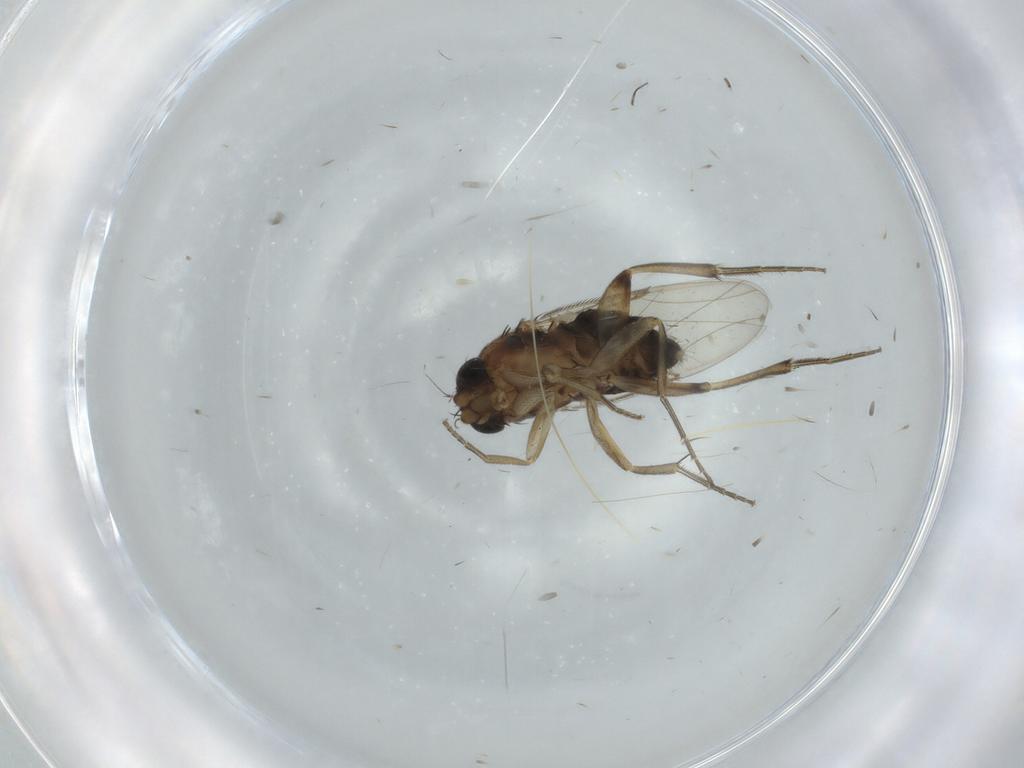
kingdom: Animalia
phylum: Arthropoda
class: Insecta
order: Diptera
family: Phoridae
